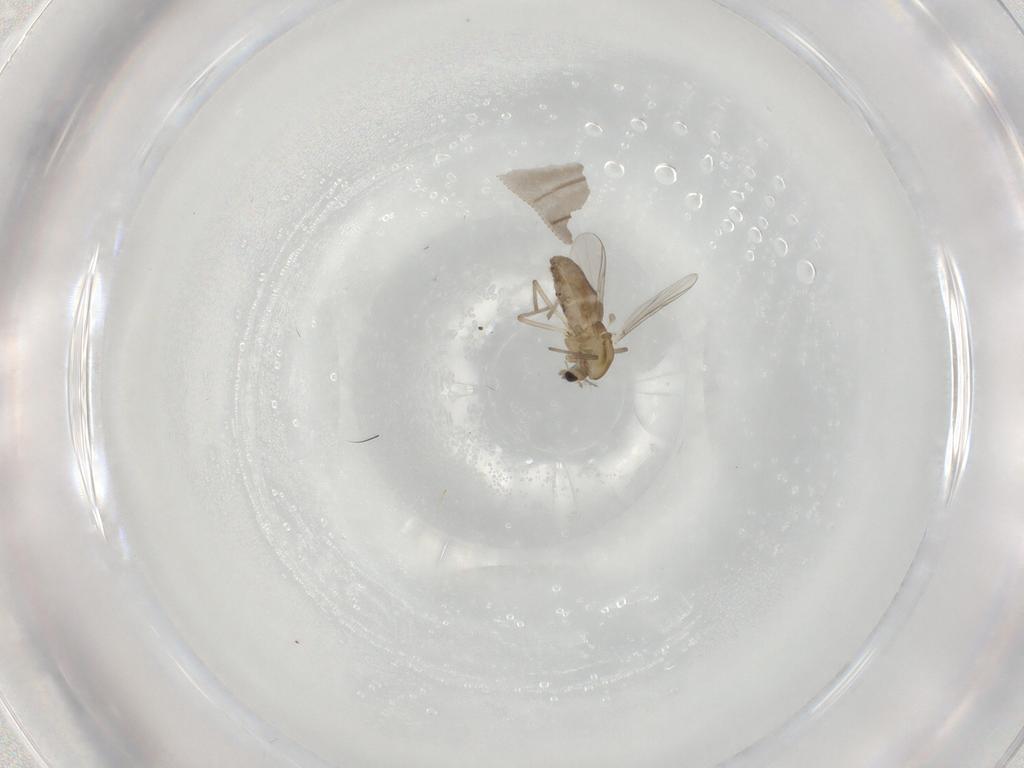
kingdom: Animalia
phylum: Arthropoda
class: Insecta
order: Diptera
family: Chironomidae
